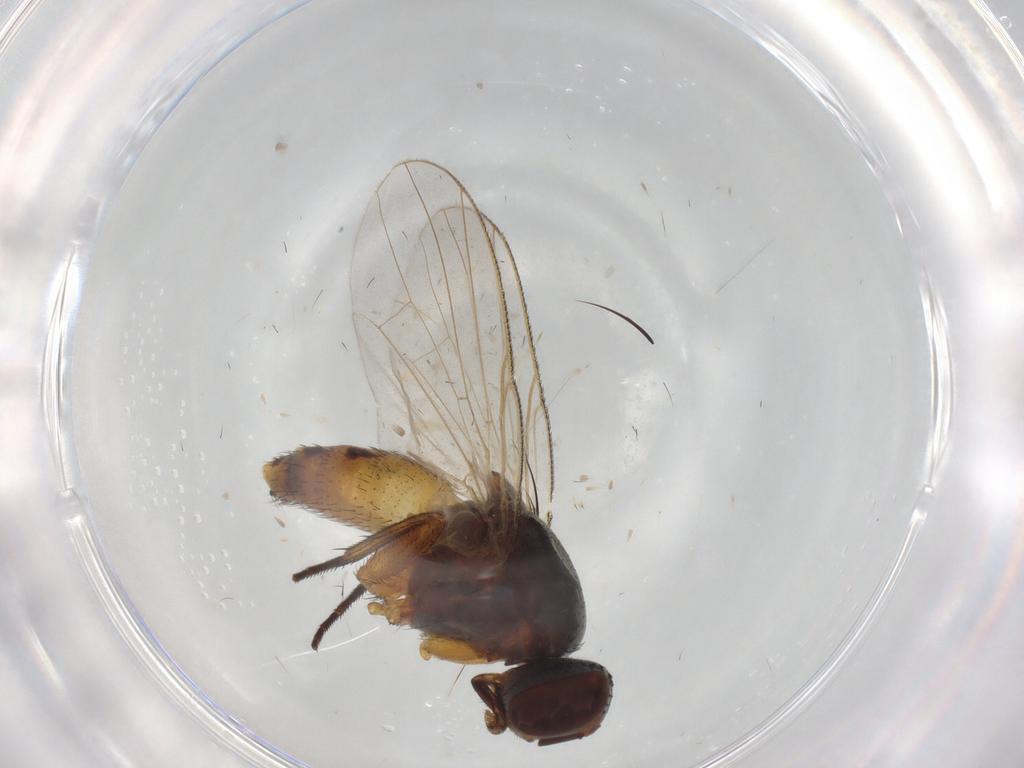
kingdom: Animalia
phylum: Arthropoda
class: Insecta
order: Diptera
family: Muscidae
